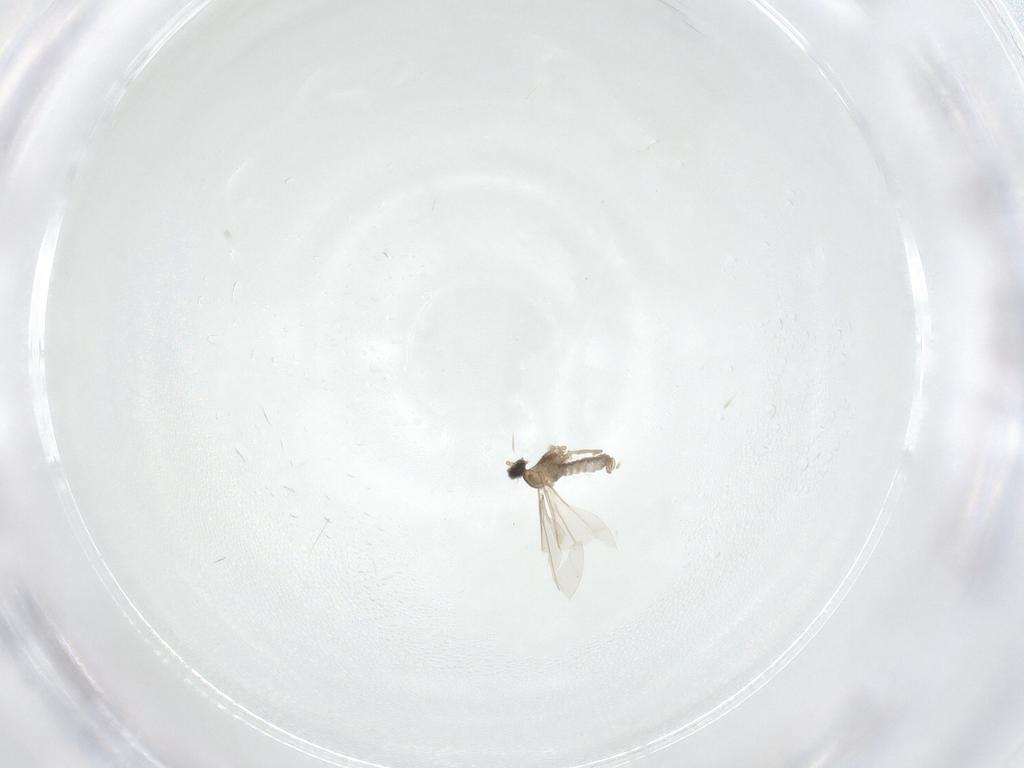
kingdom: Animalia
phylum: Arthropoda
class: Insecta
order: Diptera
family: Cecidomyiidae
